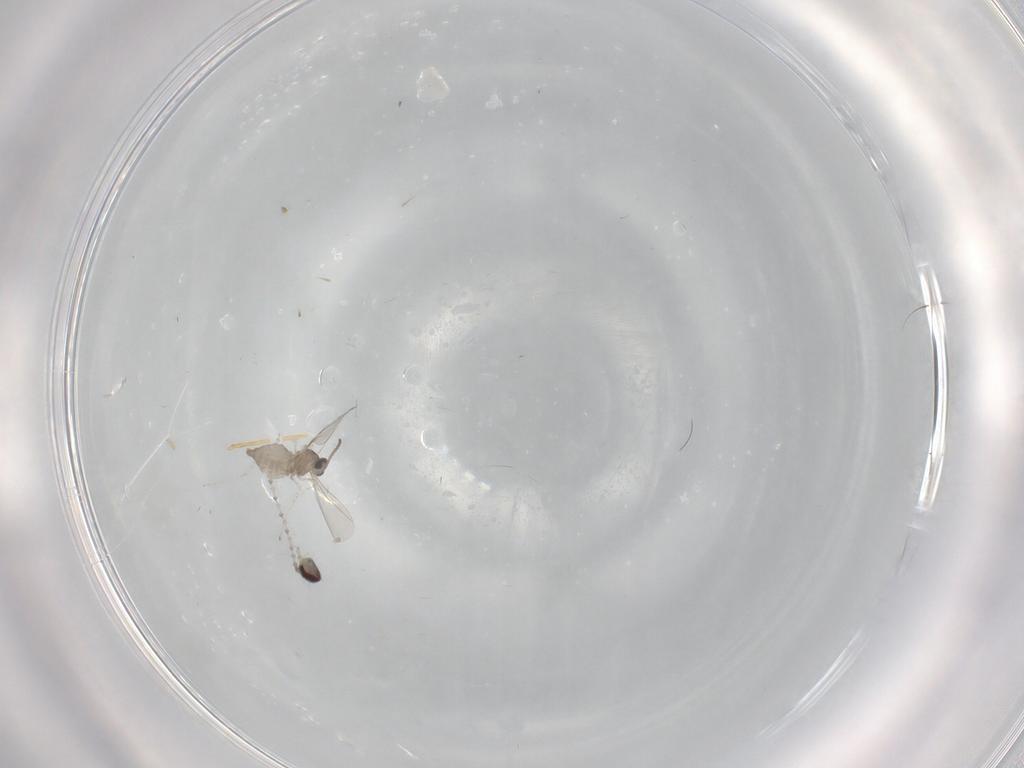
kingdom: Animalia
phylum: Arthropoda
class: Insecta
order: Diptera
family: Cecidomyiidae
